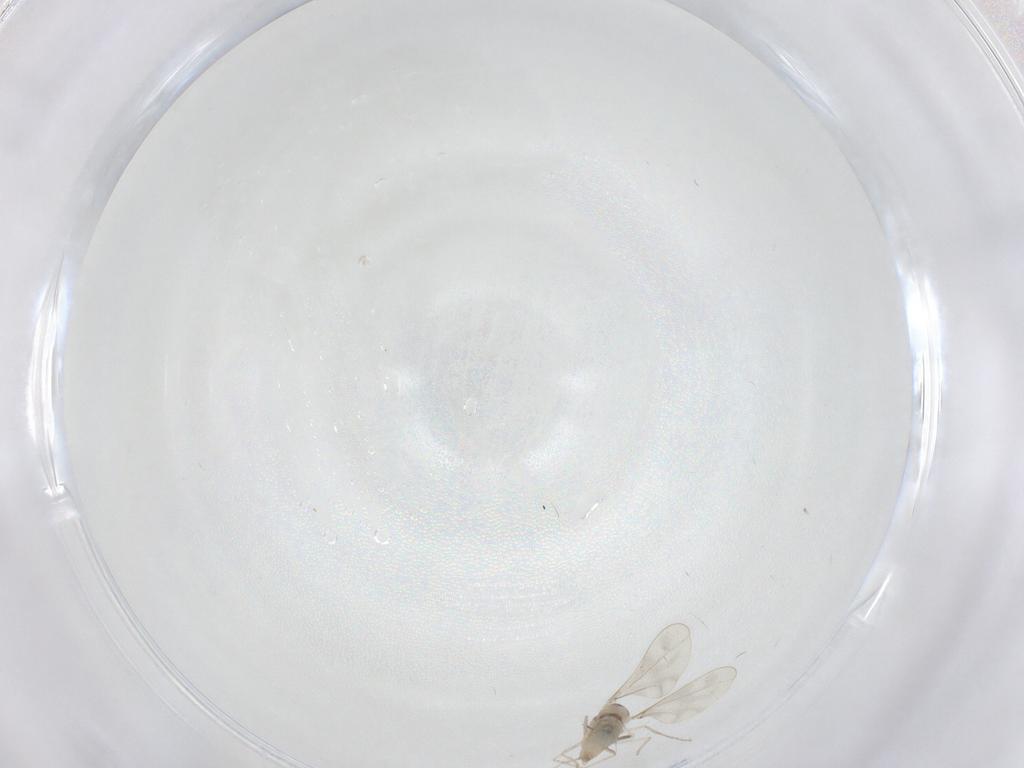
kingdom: Animalia
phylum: Arthropoda
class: Insecta
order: Diptera
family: Cecidomyiidae
